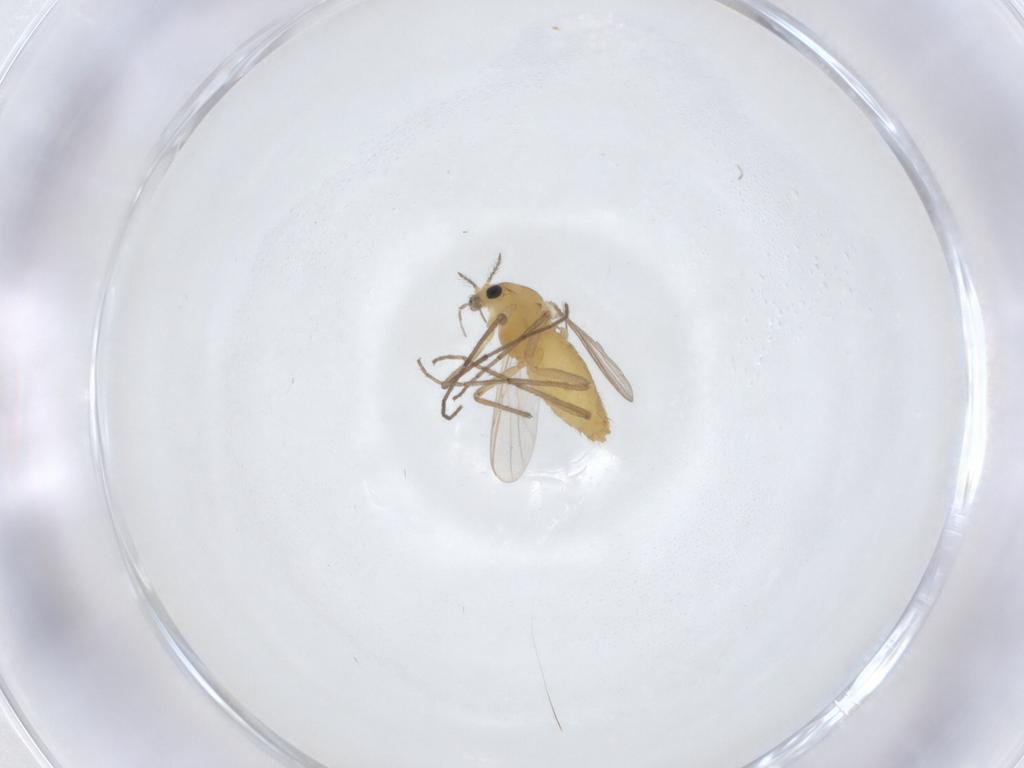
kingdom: Animalia
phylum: Arthropoda
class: Insecta
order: Diptera
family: Chironomidae
